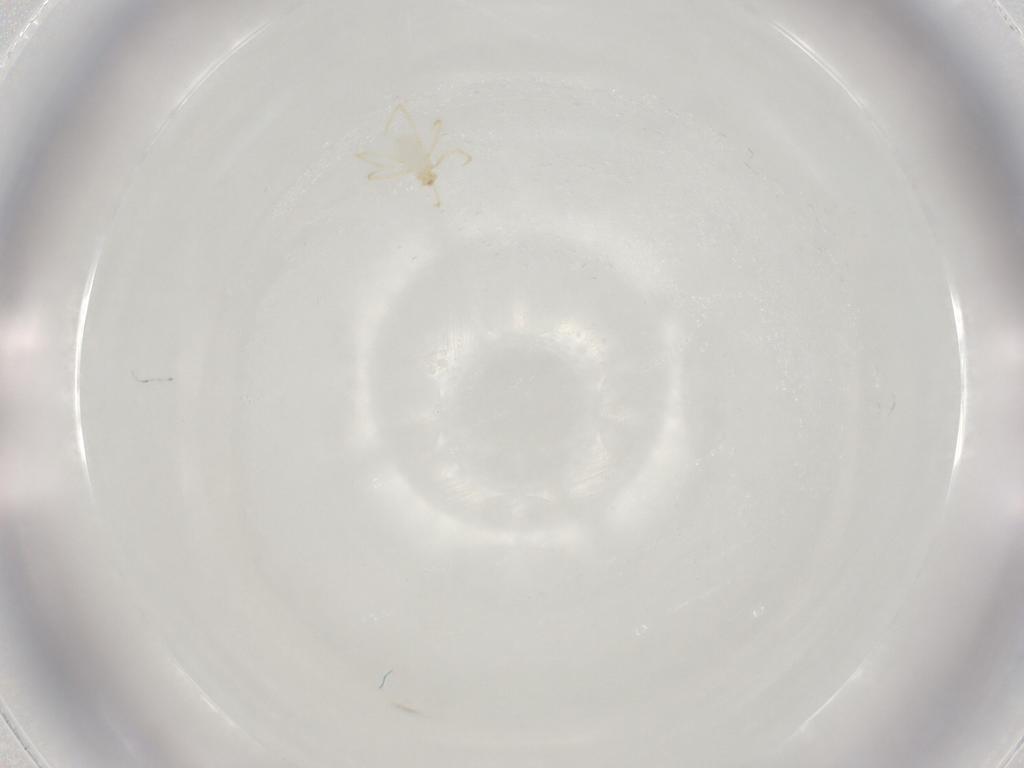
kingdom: Animalia
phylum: Arthropoda
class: Arachnida
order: Trombidiformes
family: Erythraeidae
